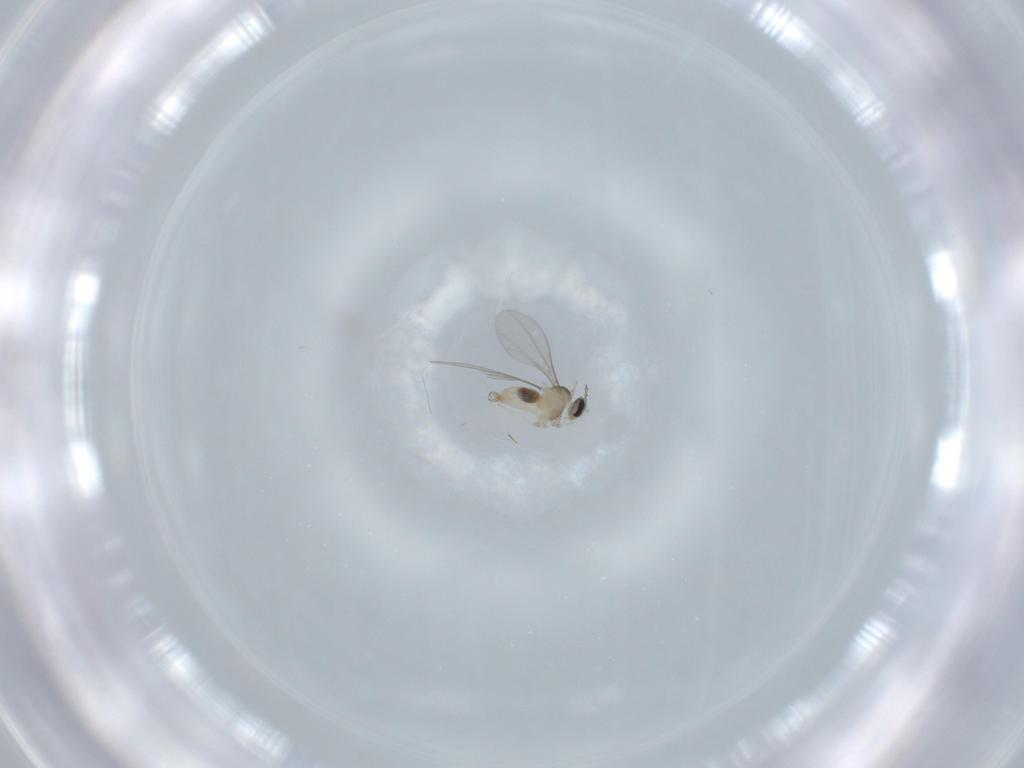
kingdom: Animalia
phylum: Arthropoda
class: Insecta
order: Diptera
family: Cecidomyiidae
